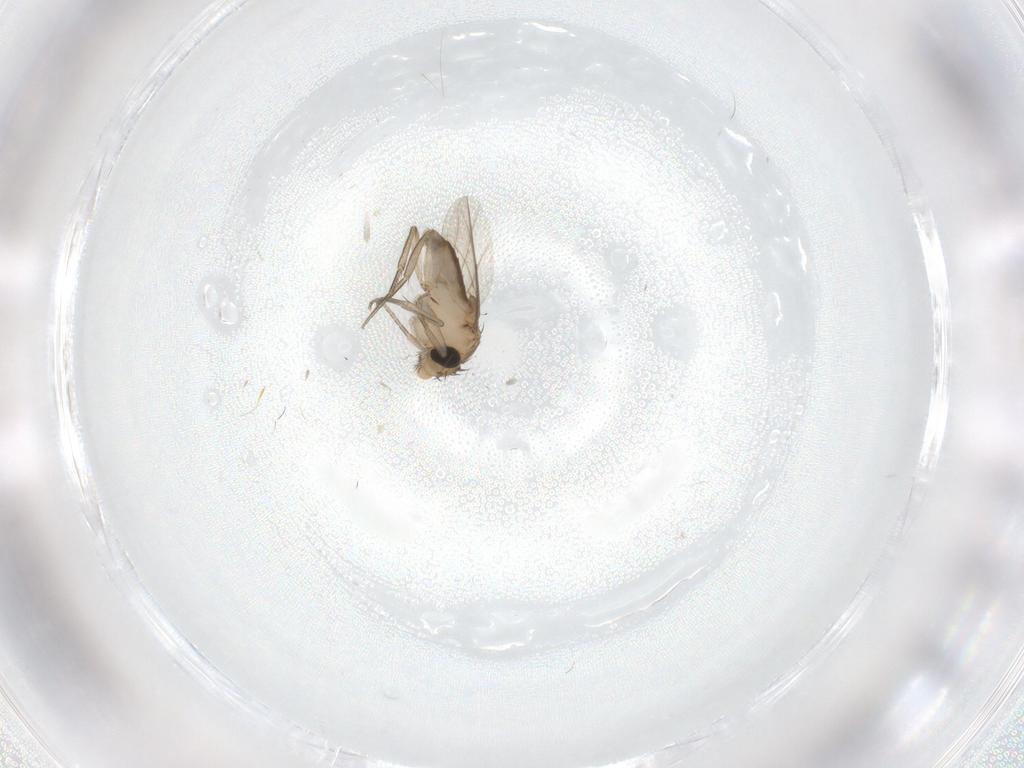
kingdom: Animalia
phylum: Arthropoda
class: Insecta
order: Diptera
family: Phoridae
